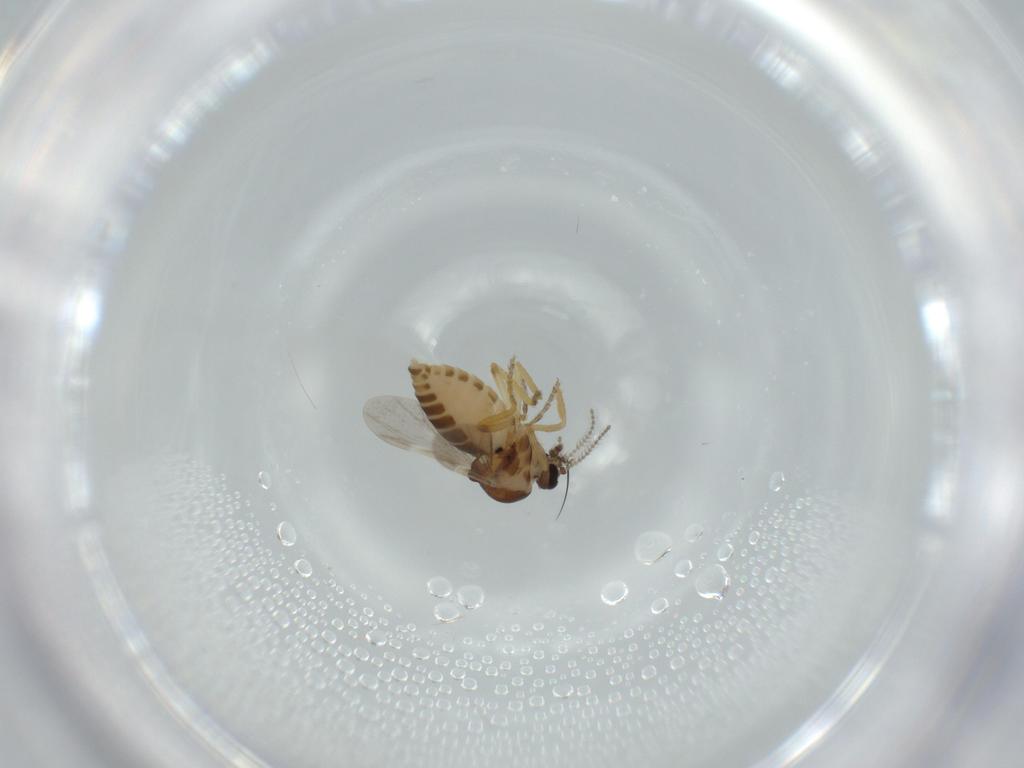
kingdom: Animalia
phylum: Arthropoda
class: Insecta
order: Diptera
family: Ceratopogonidae
